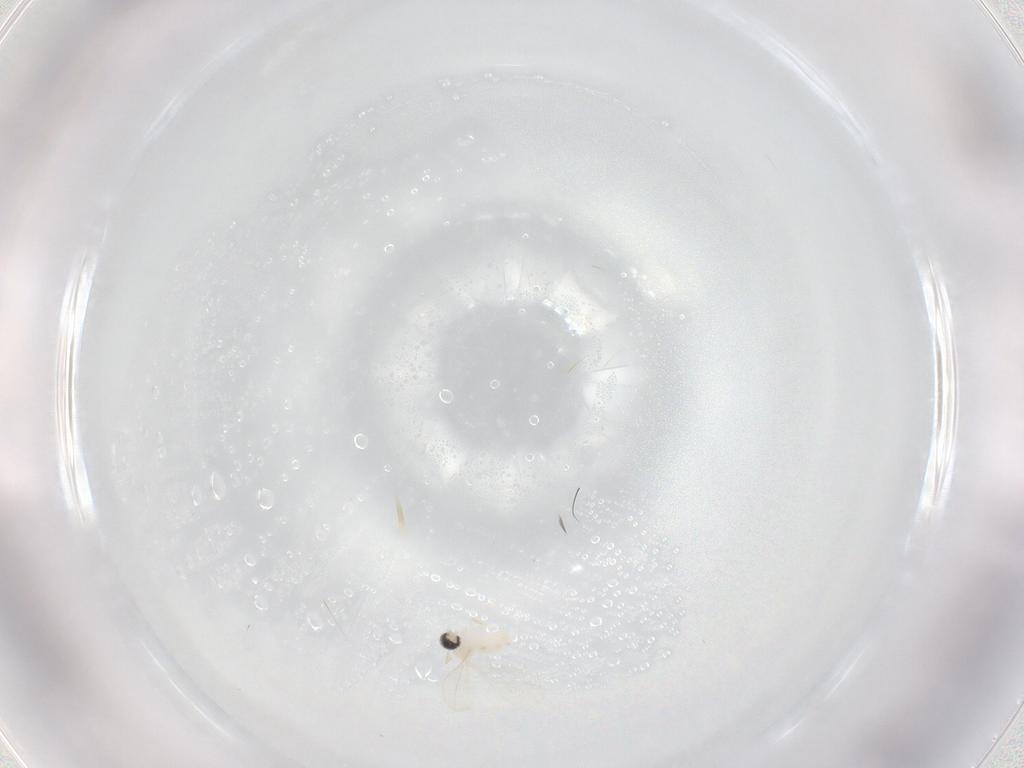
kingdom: Animalia
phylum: Arthropoda
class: Insecta
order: Diptera
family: Cecidomyiidae
